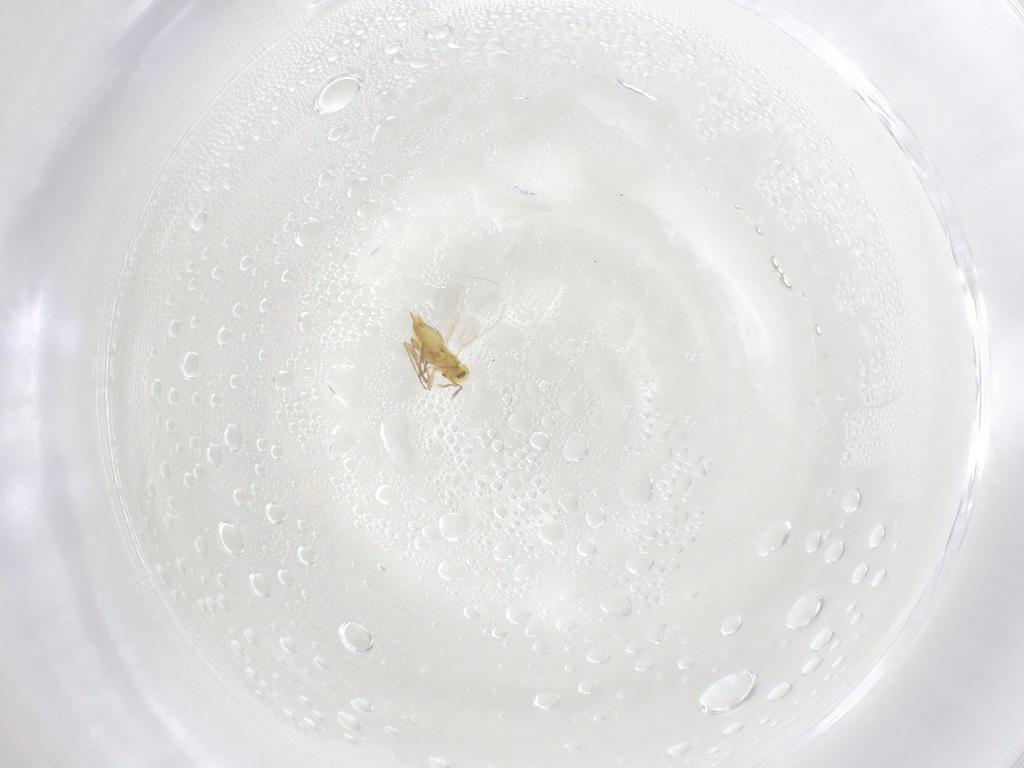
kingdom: Animalia
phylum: Arthropoda
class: Insecta
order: Hymenoptera
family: Aphelinidae
